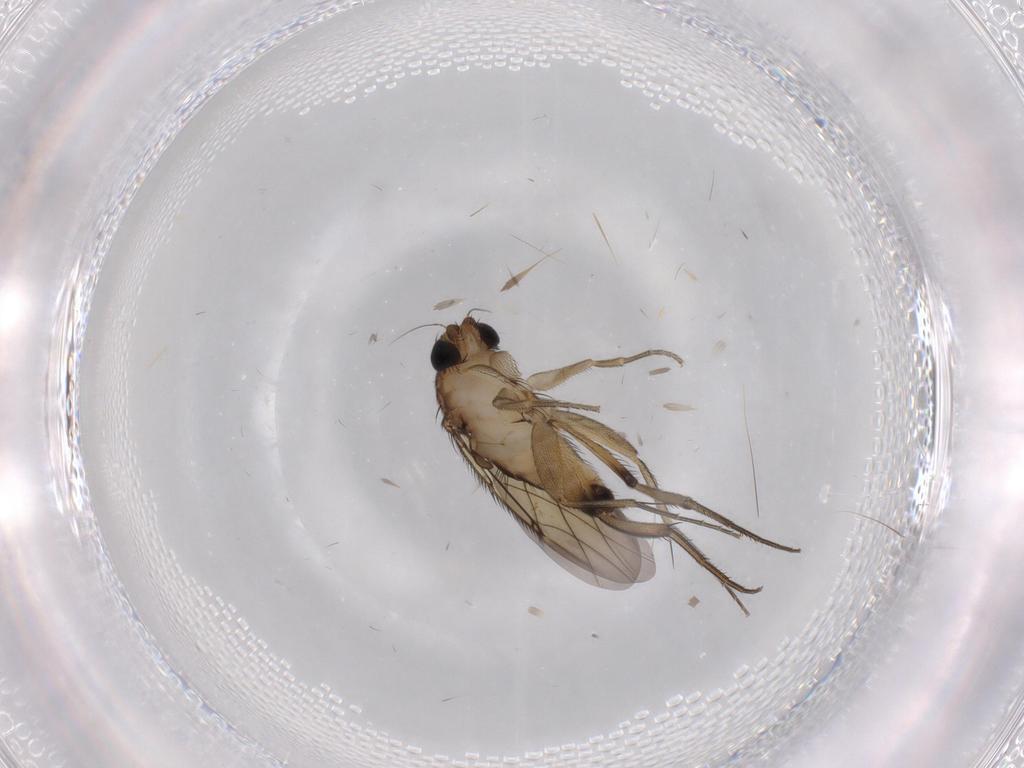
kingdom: Animalia
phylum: Arthropoda
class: Insecta
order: Diptera
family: Phoridae
